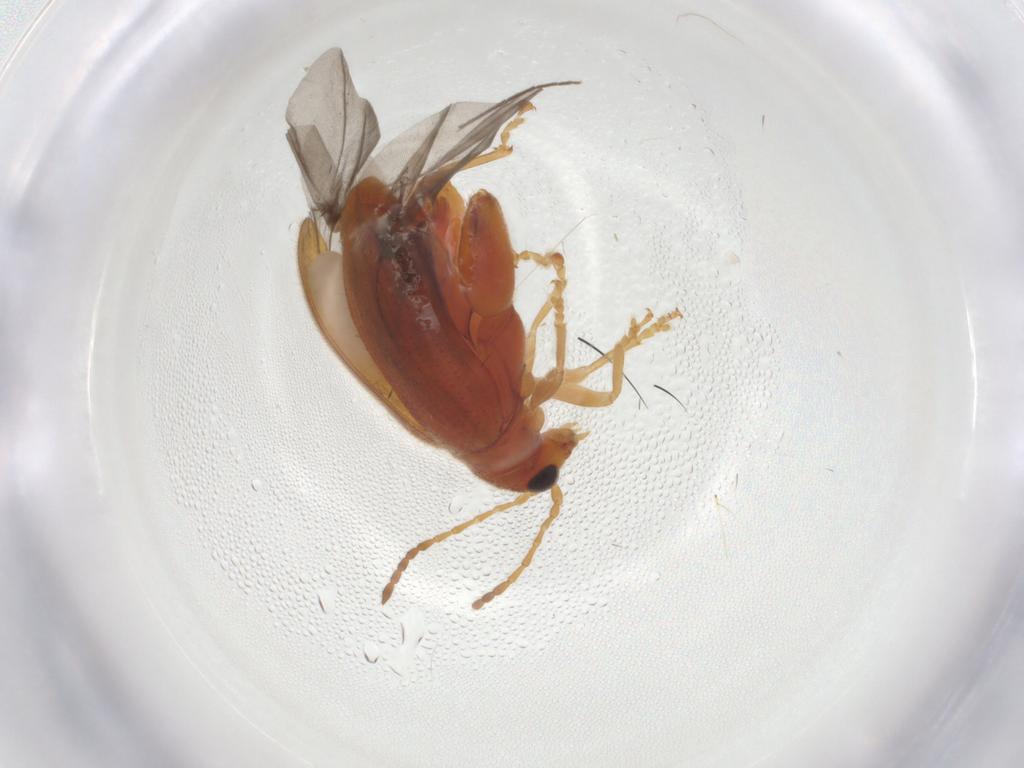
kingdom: Animalia
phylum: Arthropoda
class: Insecta
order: Coleoptera
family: Chrysomelidae
